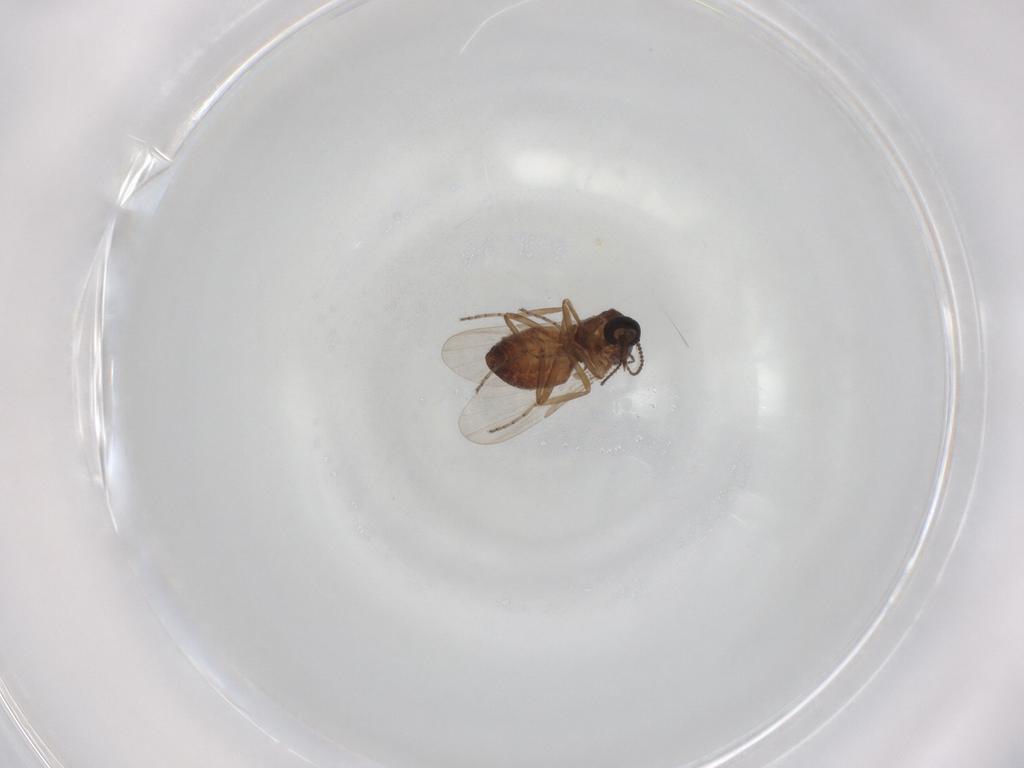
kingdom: Animalia
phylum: Arthropoda
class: Insecta
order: Diptera
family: Ceratopogonidae
